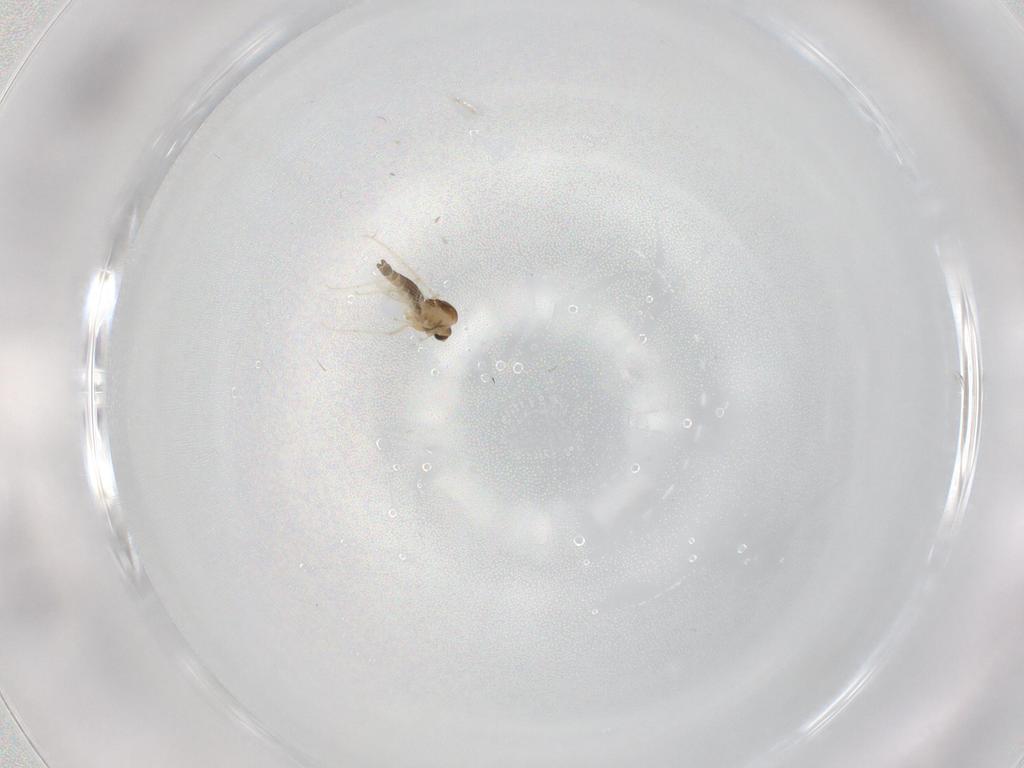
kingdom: Animalia
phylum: Arthropoda
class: Insecta
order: Diptera
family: Chironomidae
